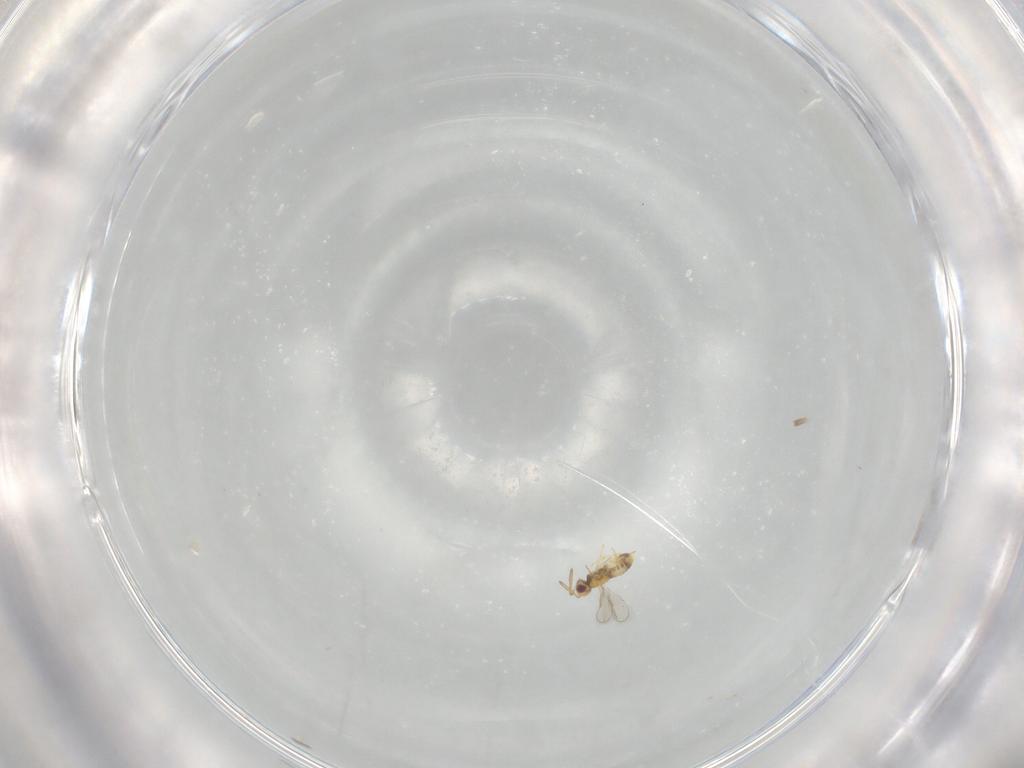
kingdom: Animalia
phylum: Arthropoda
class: Insecta
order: Hymenoptera
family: Aphelinidae
